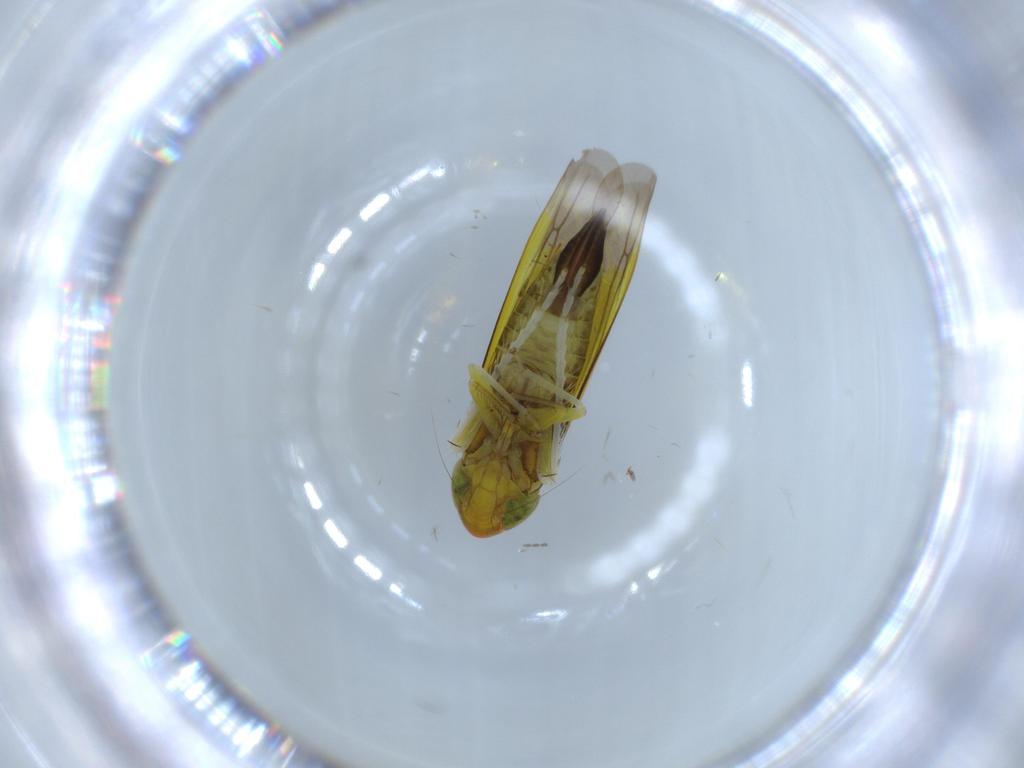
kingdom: Animalia
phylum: Arthropoda
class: Insecta
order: Hemiptera
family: Cicadellidae
